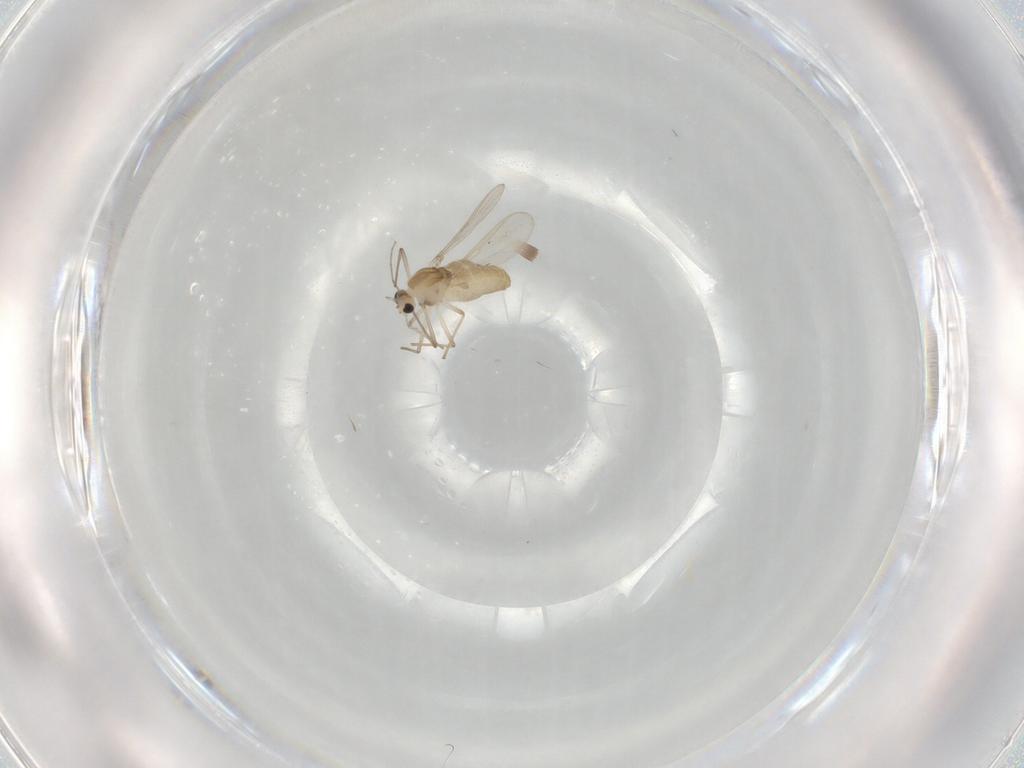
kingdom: Animalia
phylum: Arthropoda
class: Insecta
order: Diptera
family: Chironomidae
